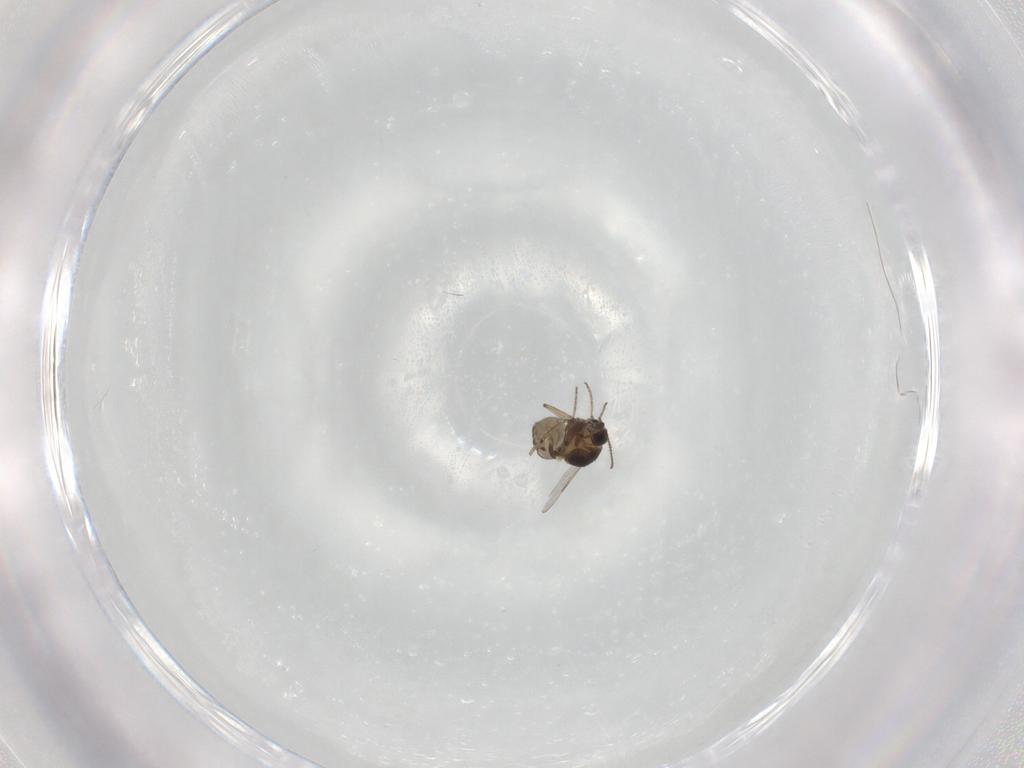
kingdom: Animalia
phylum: Arthropoda
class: Insecta
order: Diptera
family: Ceratopogonidae
